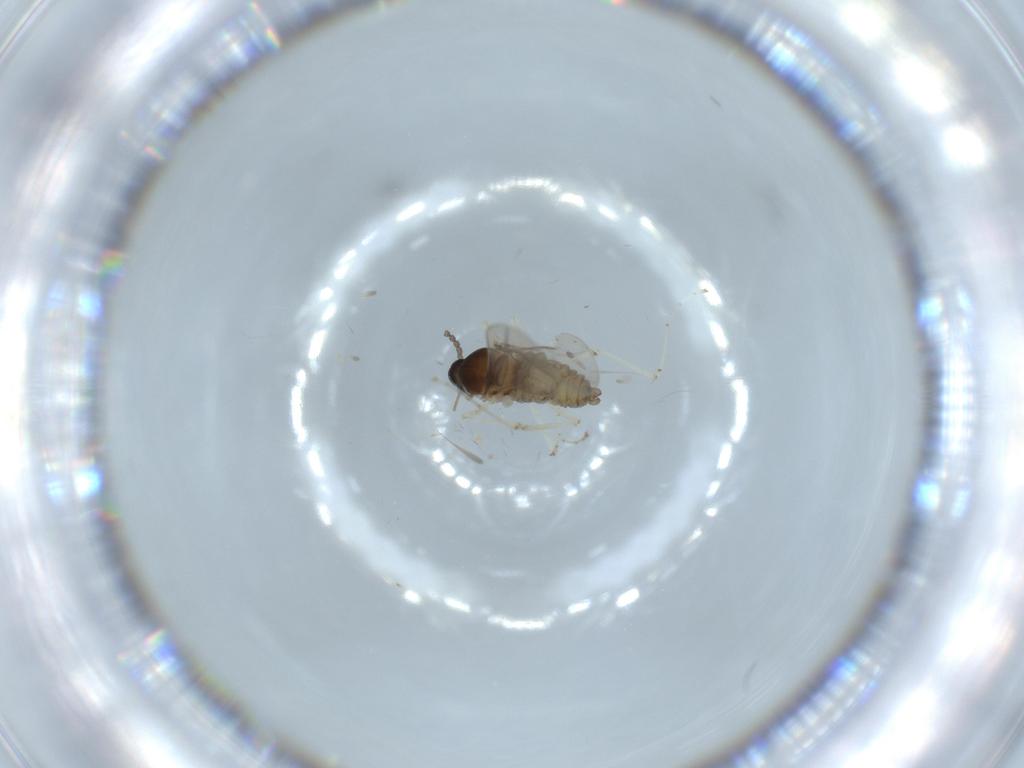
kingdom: Animalia
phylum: Arthropoda
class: Insecta
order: Diptera
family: Cecidomyiidae
